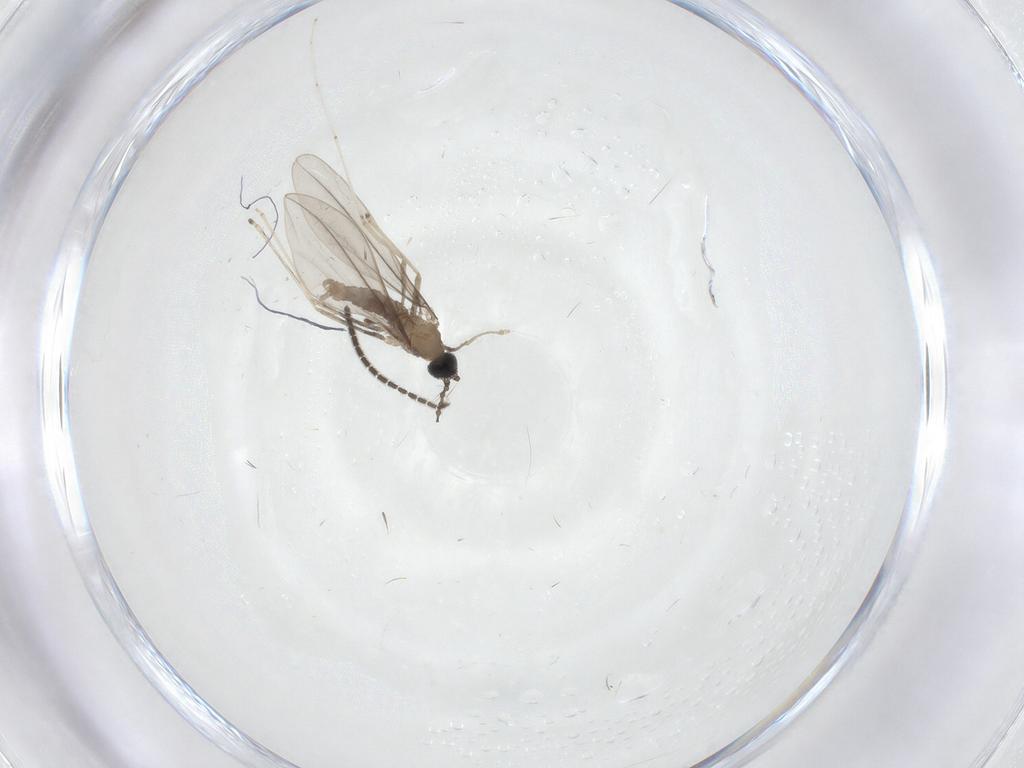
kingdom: Animalia
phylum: Arthropoda
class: Insecta
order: Diptera
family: Cecidomyiidae
